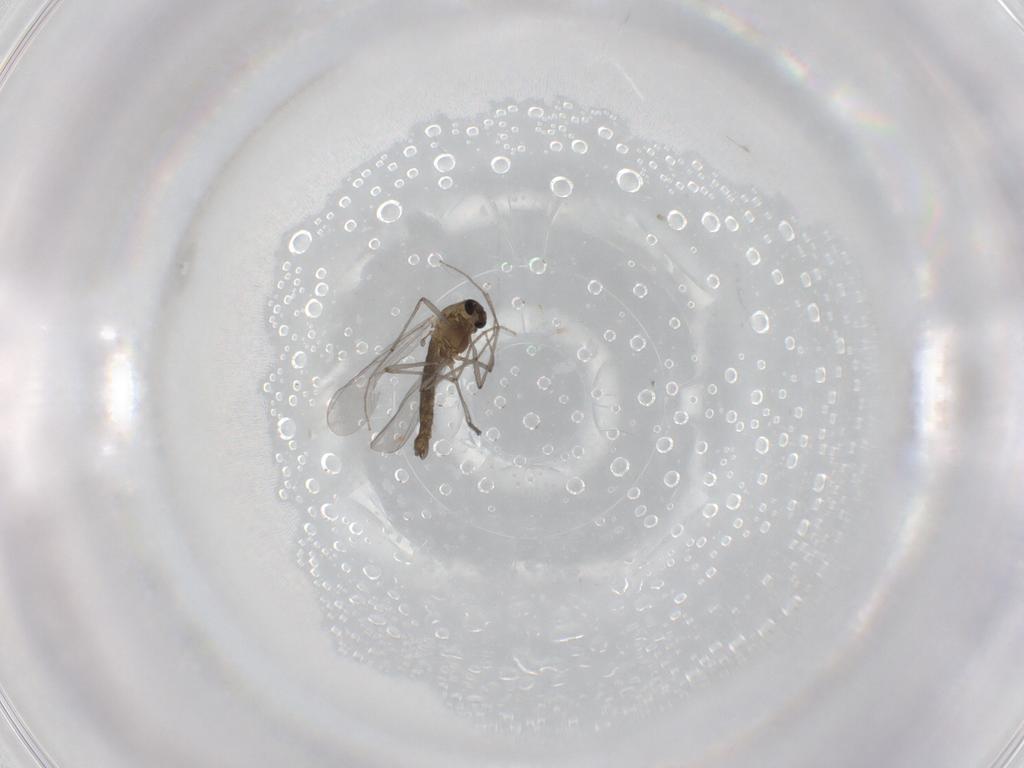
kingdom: Animalia
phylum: Arthropoda
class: Insecta
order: Diptera
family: Chironomidae
